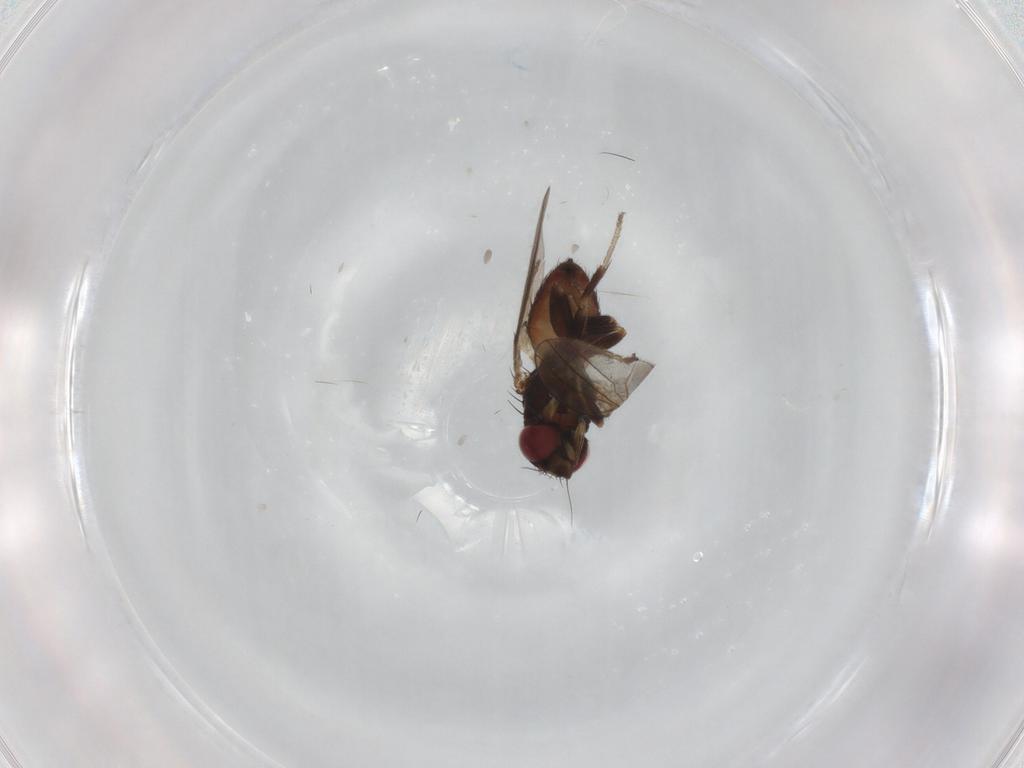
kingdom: Animalia
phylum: Arthropoda
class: Insecta
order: Diptera
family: Milichiidae
